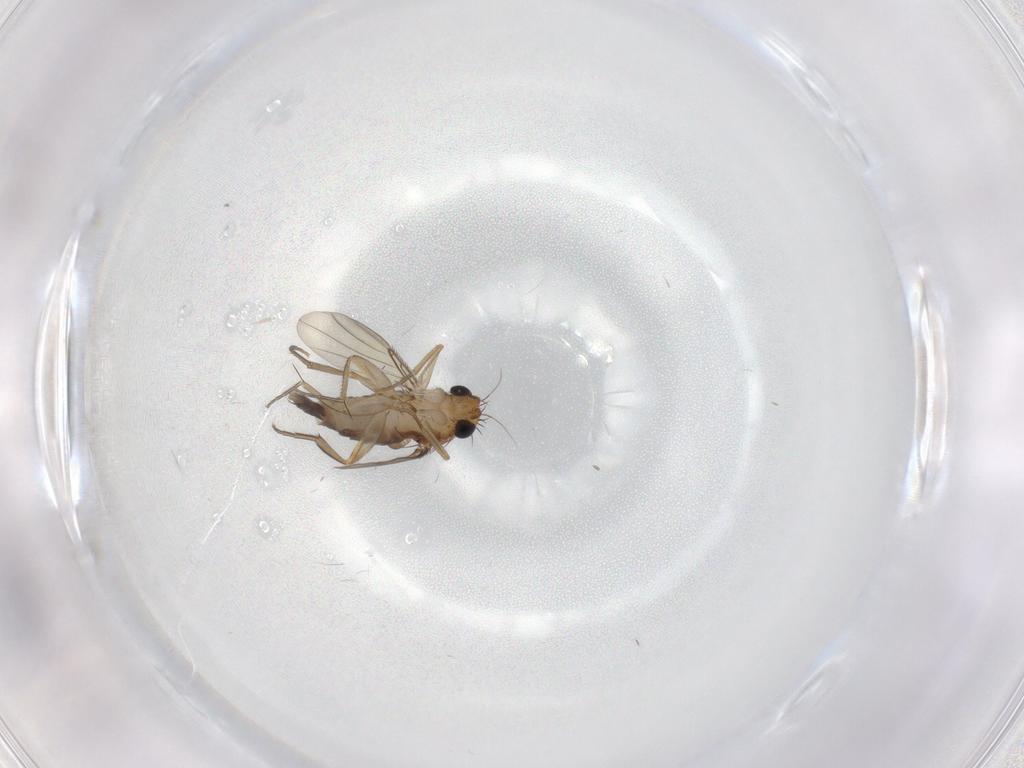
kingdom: Animalia
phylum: Arthropoda
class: Insecta
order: Diptera
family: Phoridae
